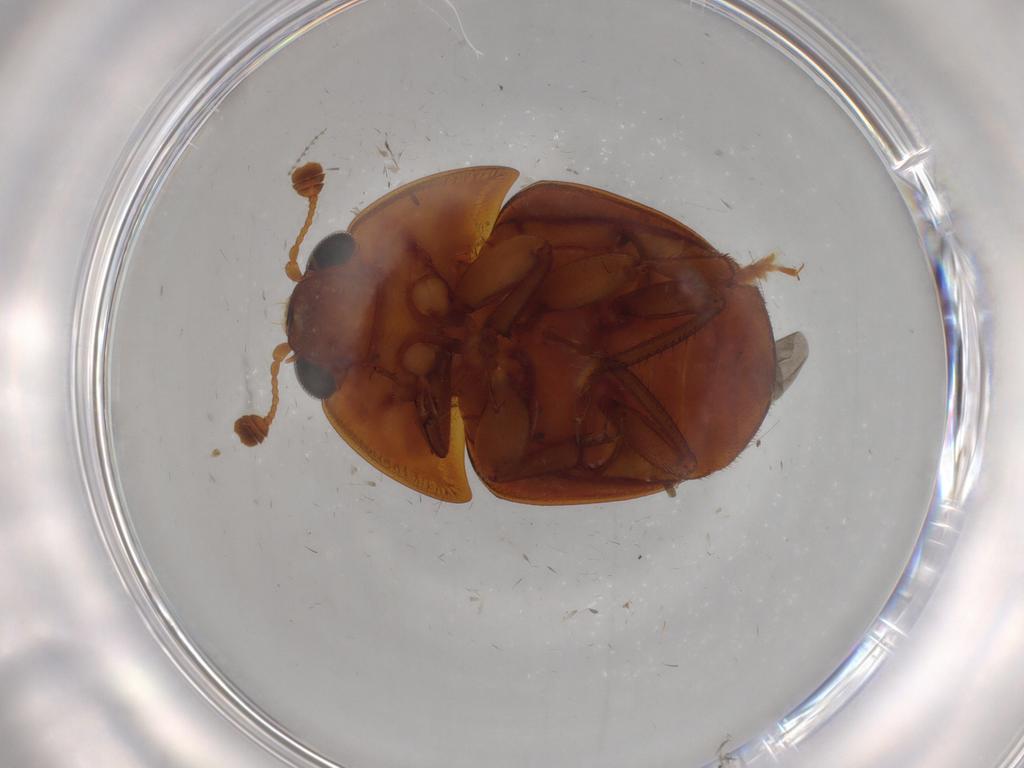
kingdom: Animalia
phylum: Arthropoda
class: Insecta
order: Coleoptera
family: Nitidulidae
